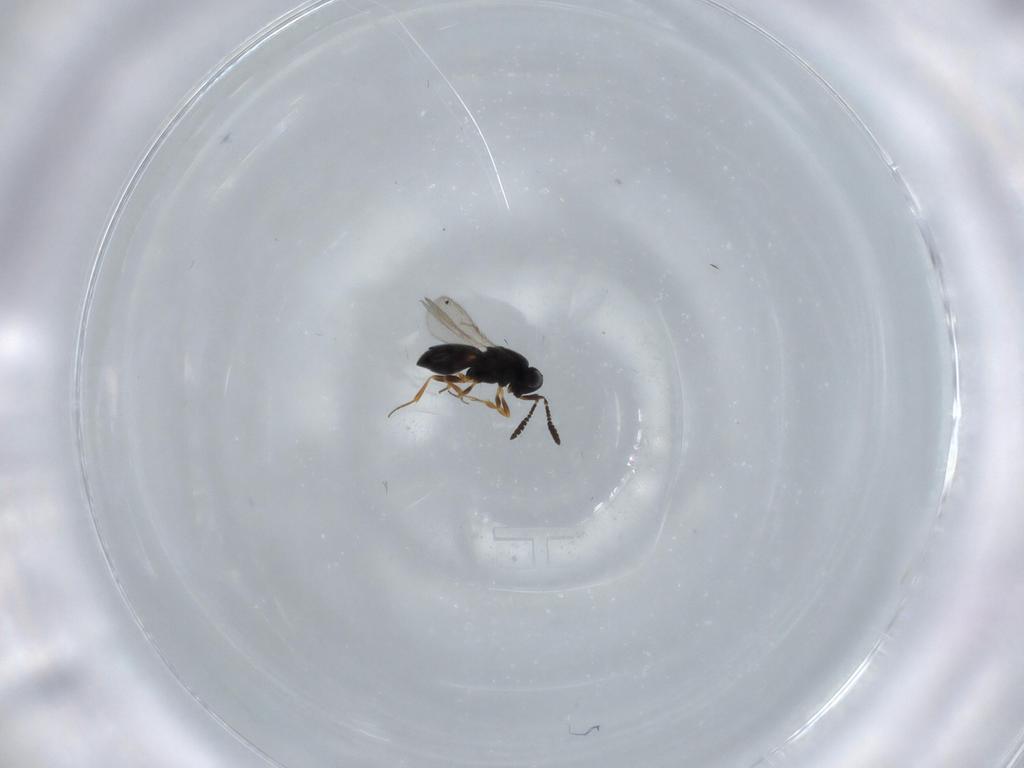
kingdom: Animalia
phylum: Arthropoda
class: Insecta
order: Hymenoptera
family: Scelionidae
